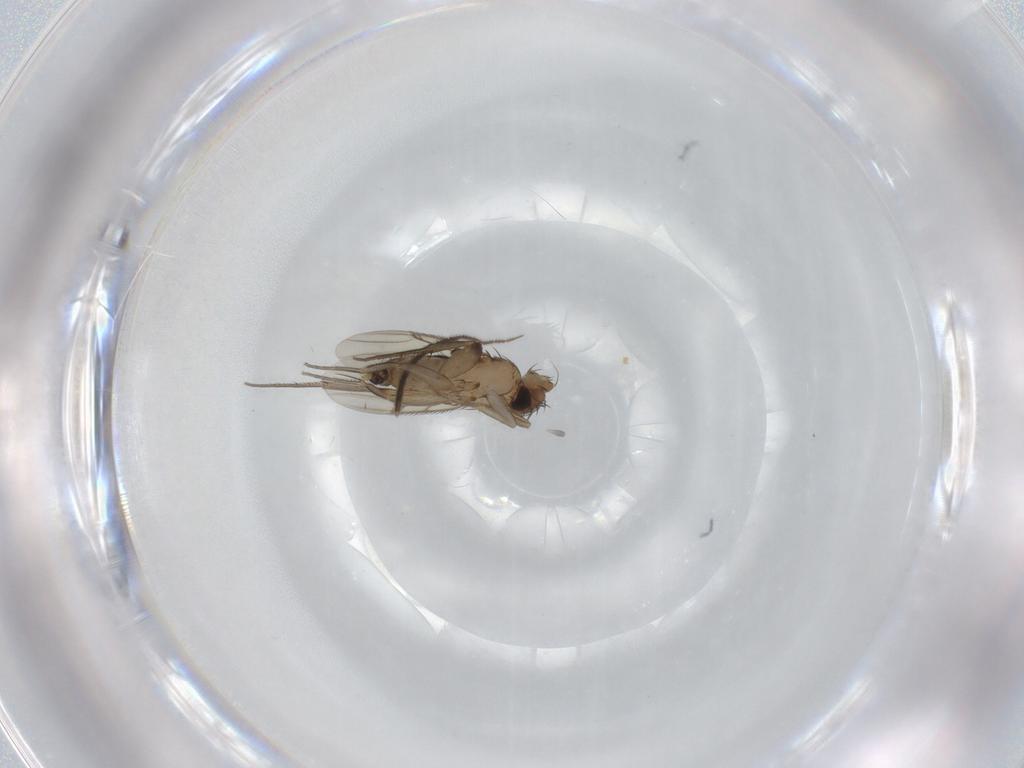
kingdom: Animalia
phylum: Arthropoda
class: Insecta
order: Diptera
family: Sciaridae
